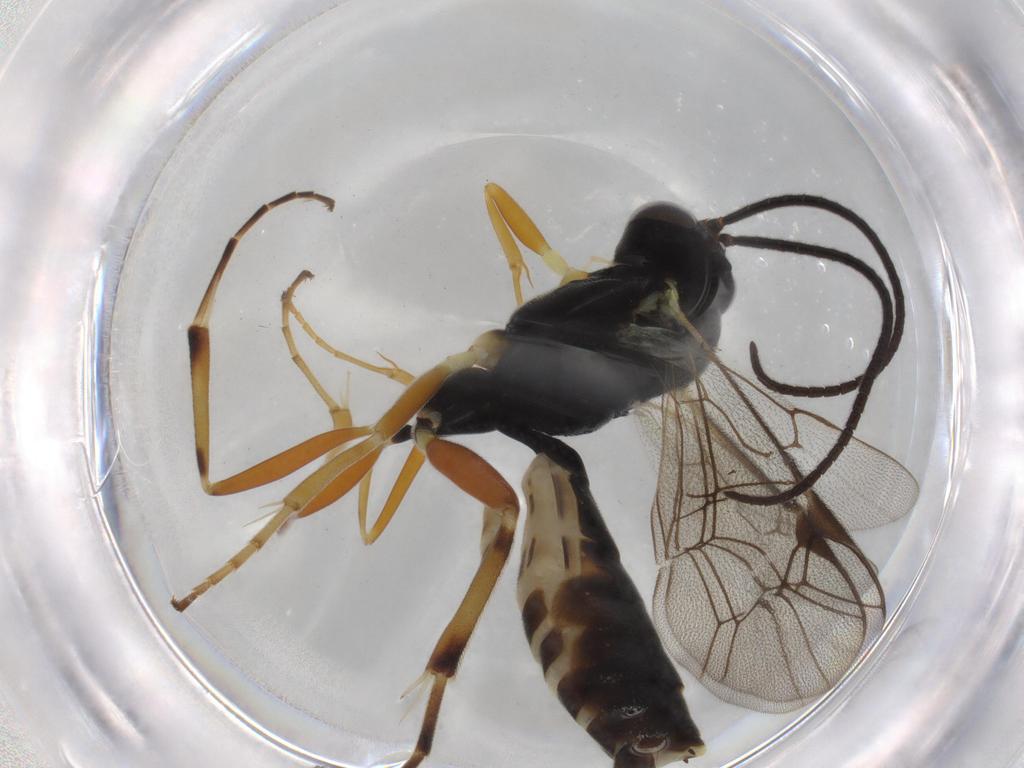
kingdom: Animalia
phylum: Arthropoda
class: Insecta
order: Hymenoptera
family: Ichneumonidae
